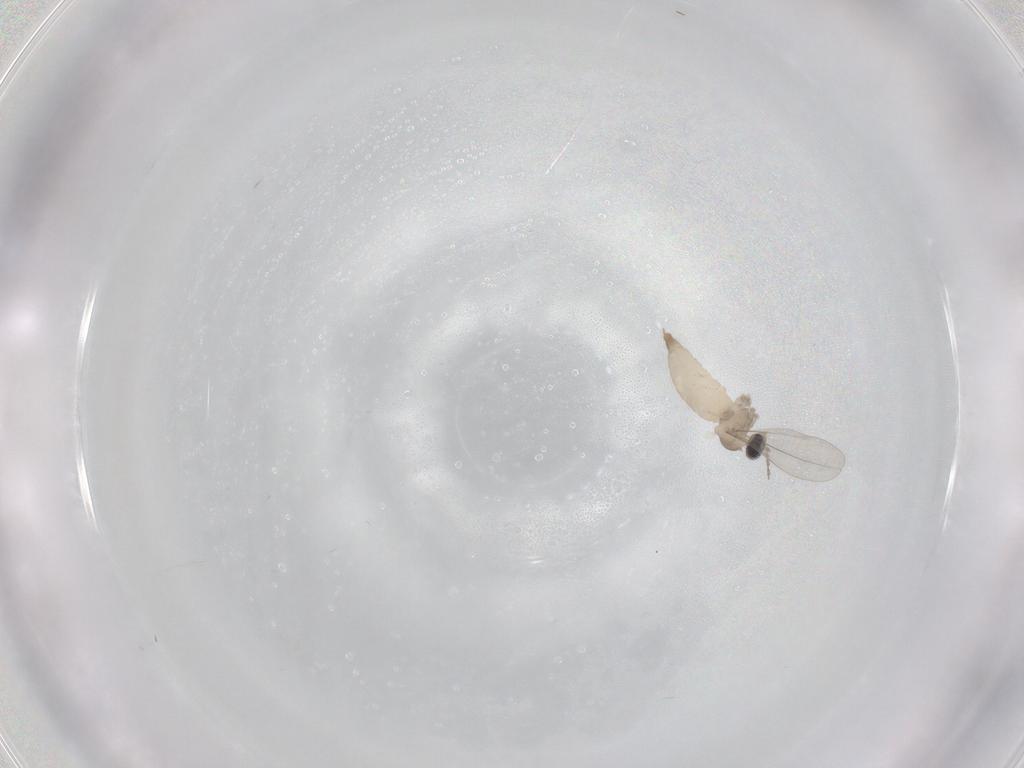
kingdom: Animalia
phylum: Arthropoda
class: Insecta
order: Diptera
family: Cecidomyiidae
